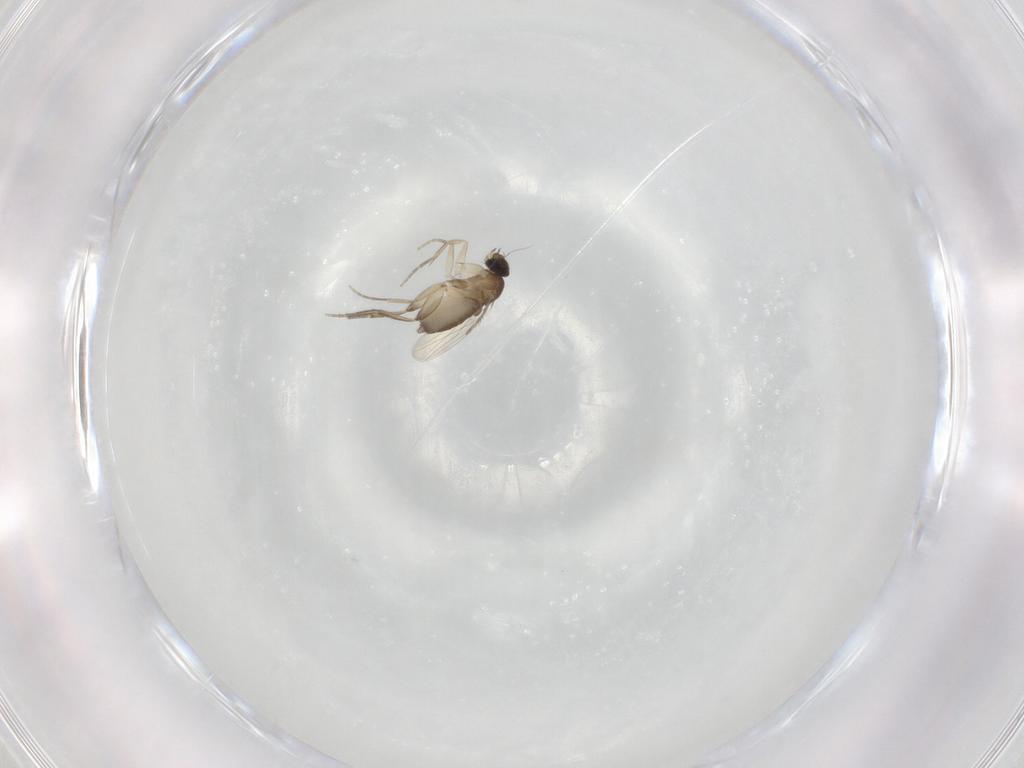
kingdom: Animalia
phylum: Arthropoda
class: Insecta
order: Diptera
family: Phoridae
